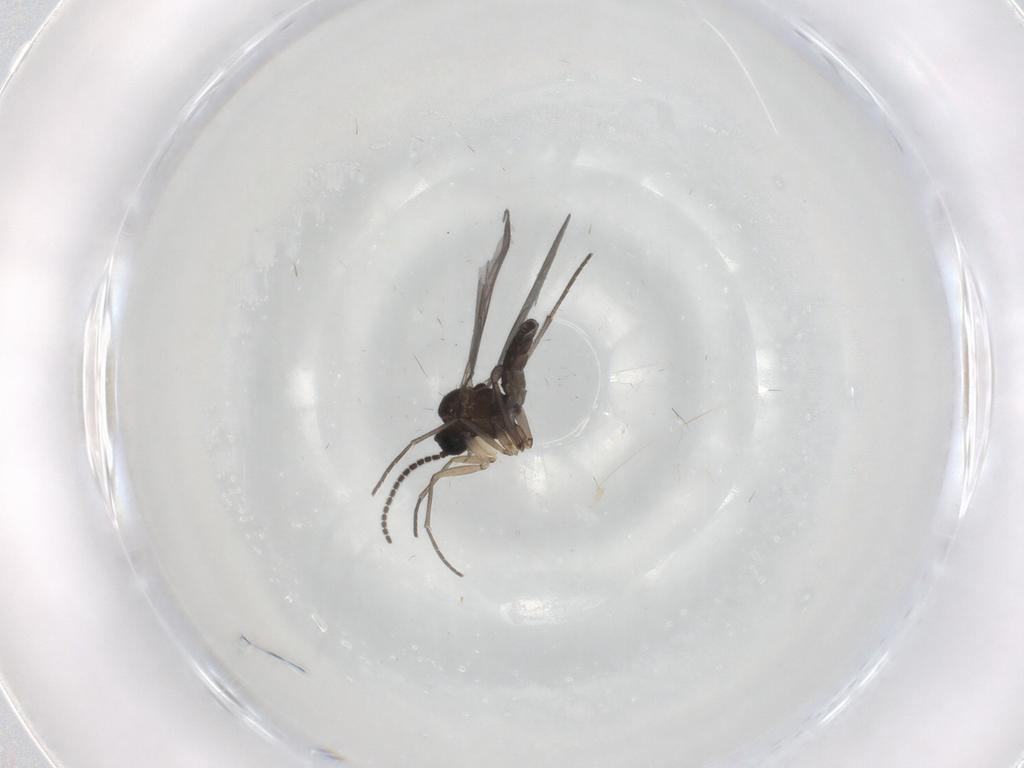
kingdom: Animalia
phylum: Arthropoda
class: Insecta
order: Diptera
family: Sciaridae
